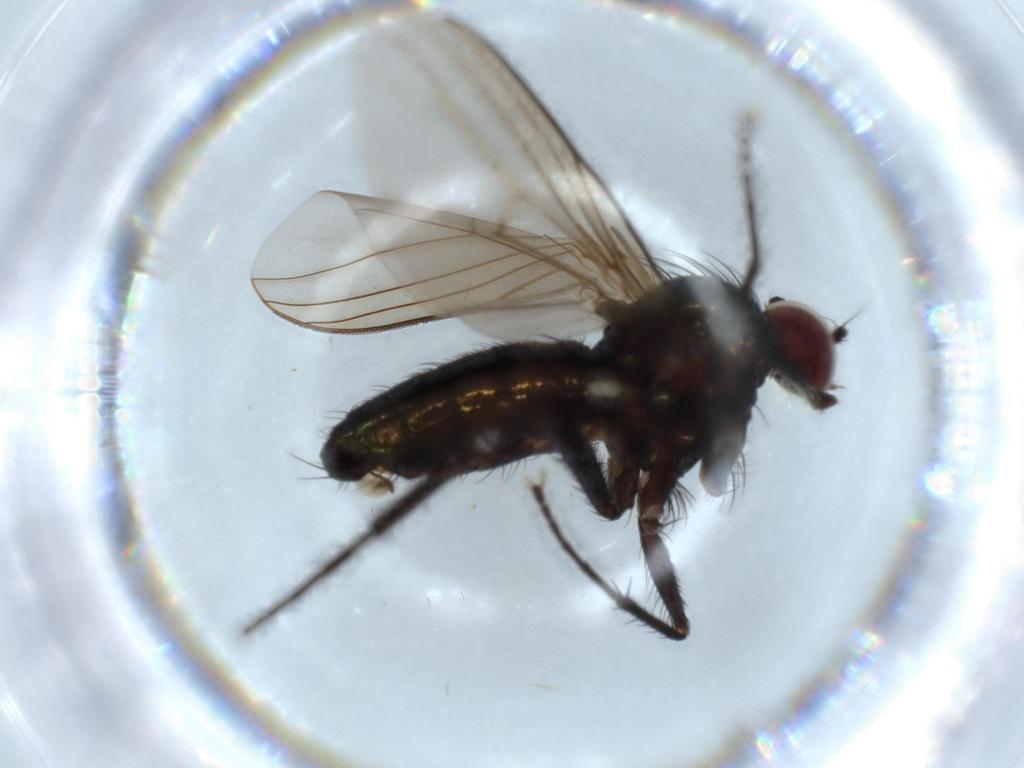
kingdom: Animalia
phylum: Arthropoda
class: Insecta
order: Diptera
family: Dolichopodidae
